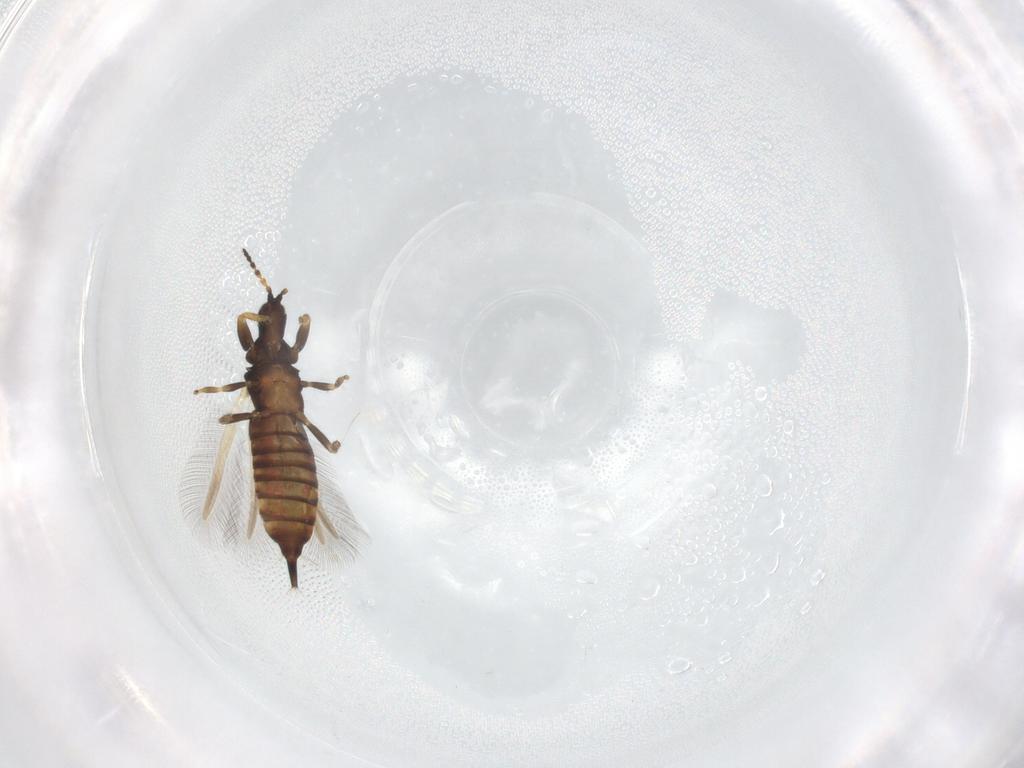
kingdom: Animalia
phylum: Arthropoda
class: Insecta
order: Thysanoptera
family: Phlaeothripidae
